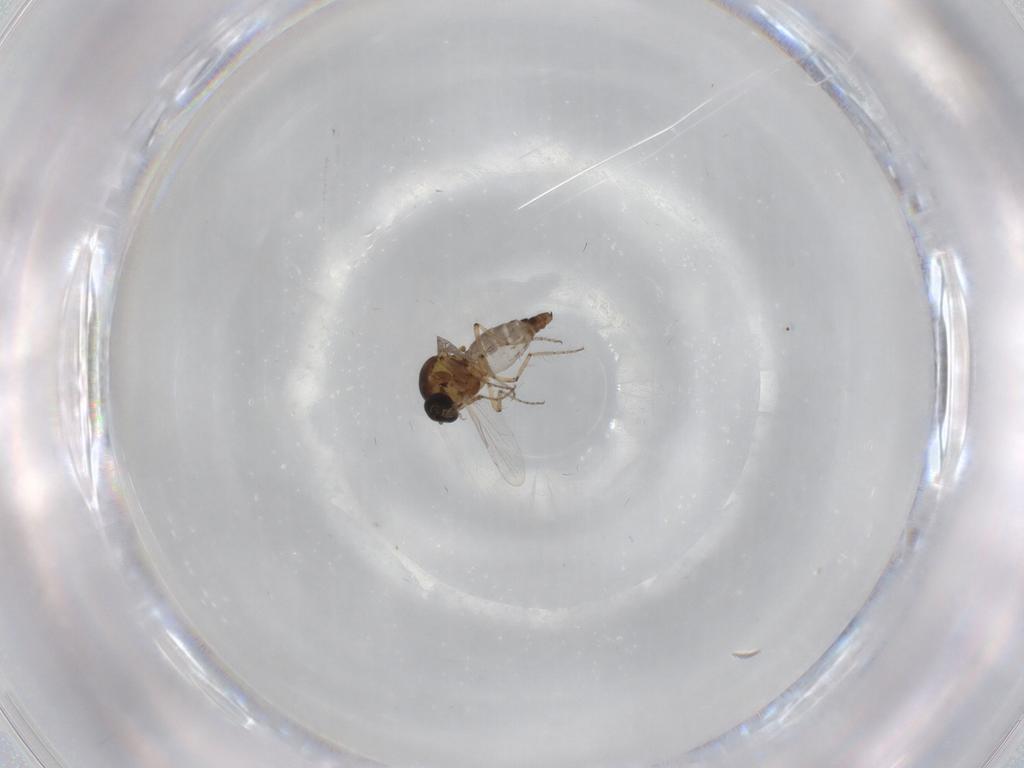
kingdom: Animalia
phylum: Arthropoda
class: Insecta
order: Diptera
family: Ceratopogonidae
